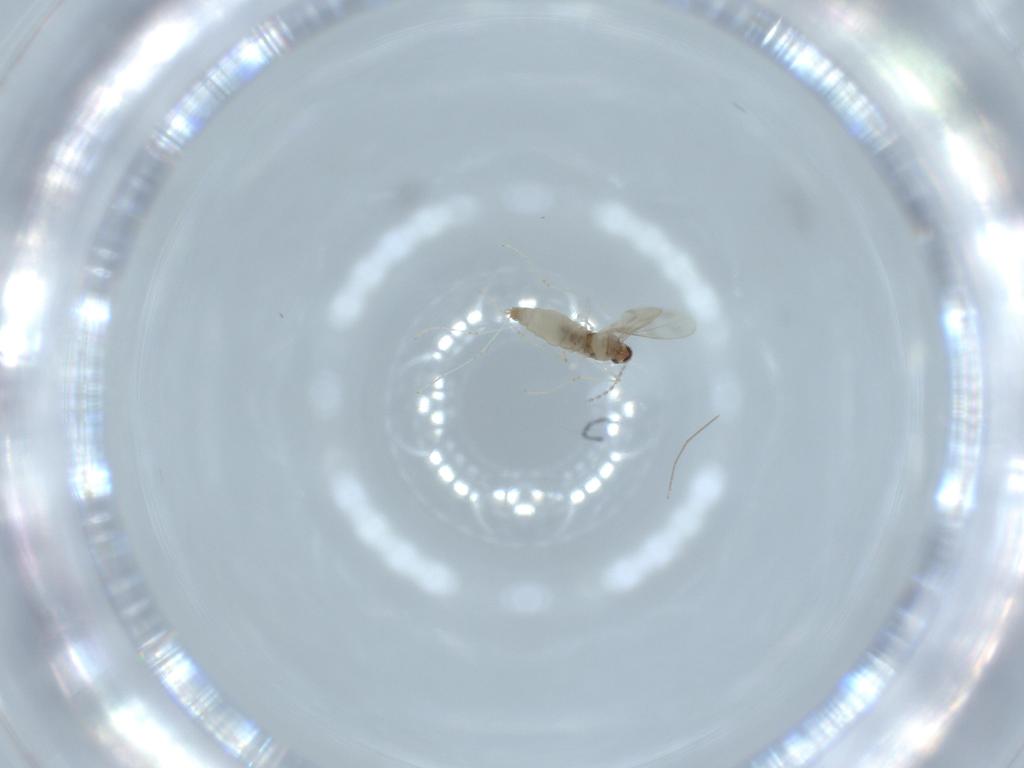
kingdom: Animalia
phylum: Arthropoda
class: Insecta
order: Diptera
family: Cecidomyiidae
